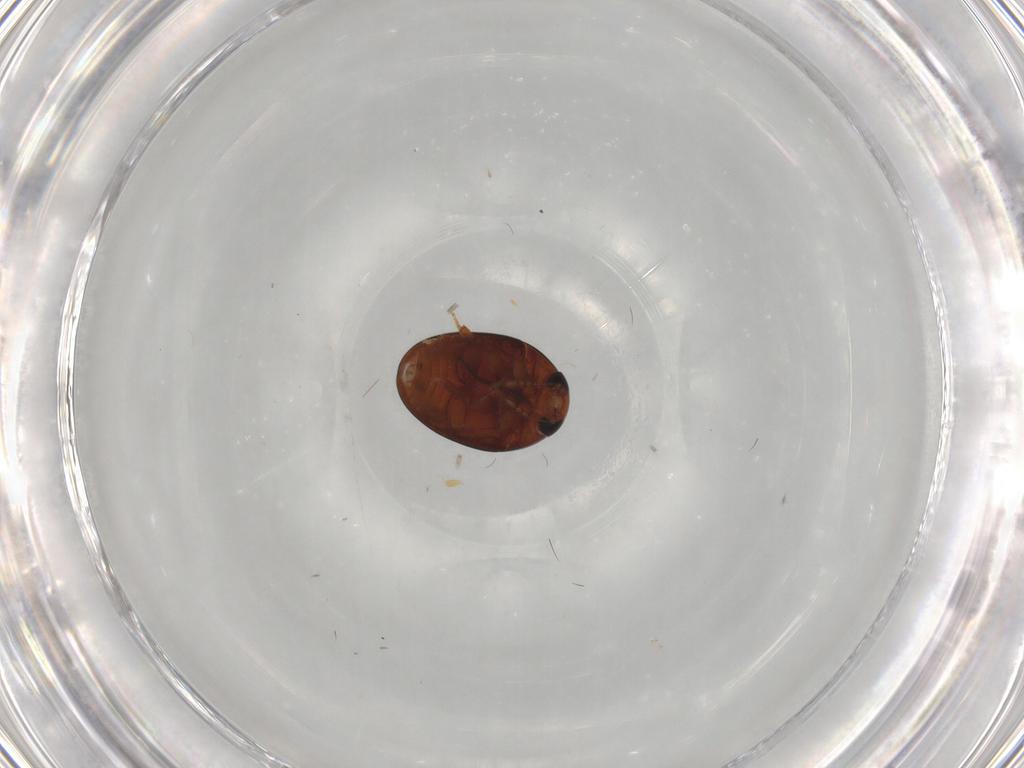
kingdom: Animalia
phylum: Arthropoda
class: Insecta
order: Coleoptera
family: Phalacridae
